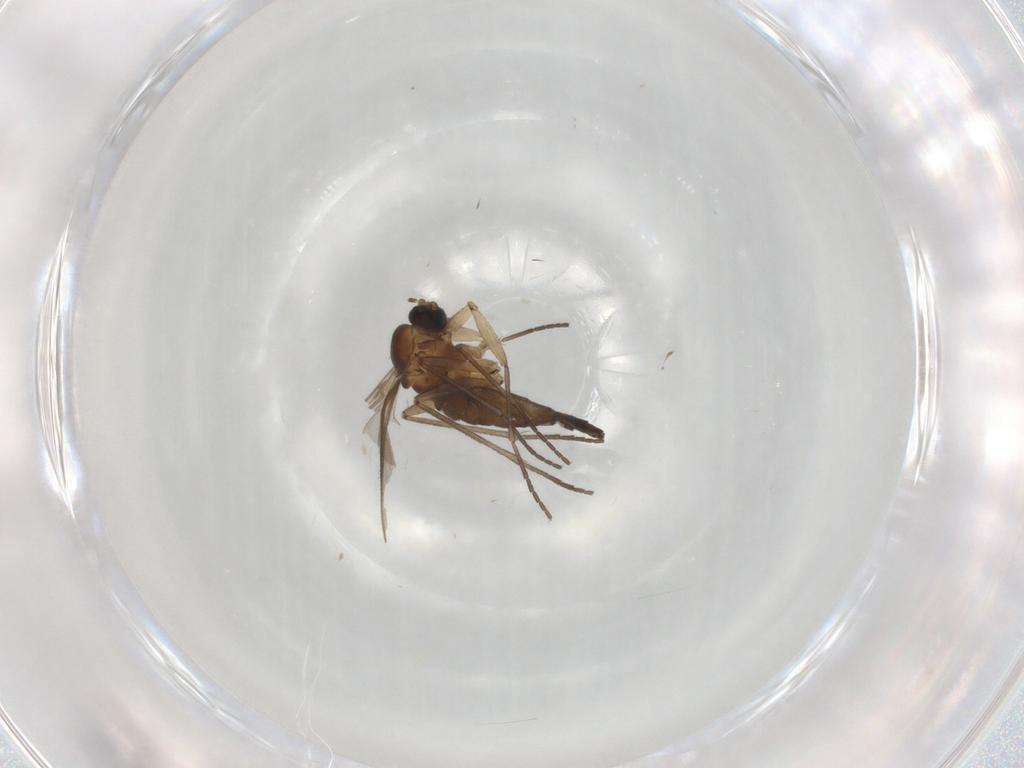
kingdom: Animalia
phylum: Arthropoda
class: Insecta
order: Diptera
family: Sciaridae
